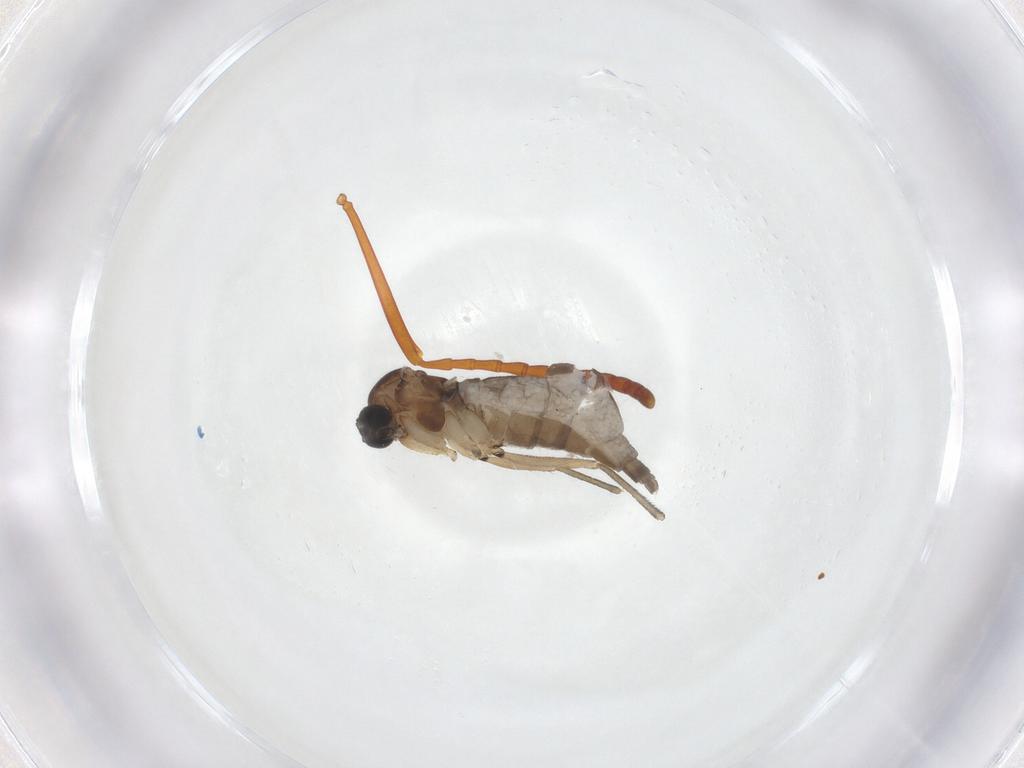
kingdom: Animalia
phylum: Arthropoda
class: Insecta
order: Diptera
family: Sciaridae
